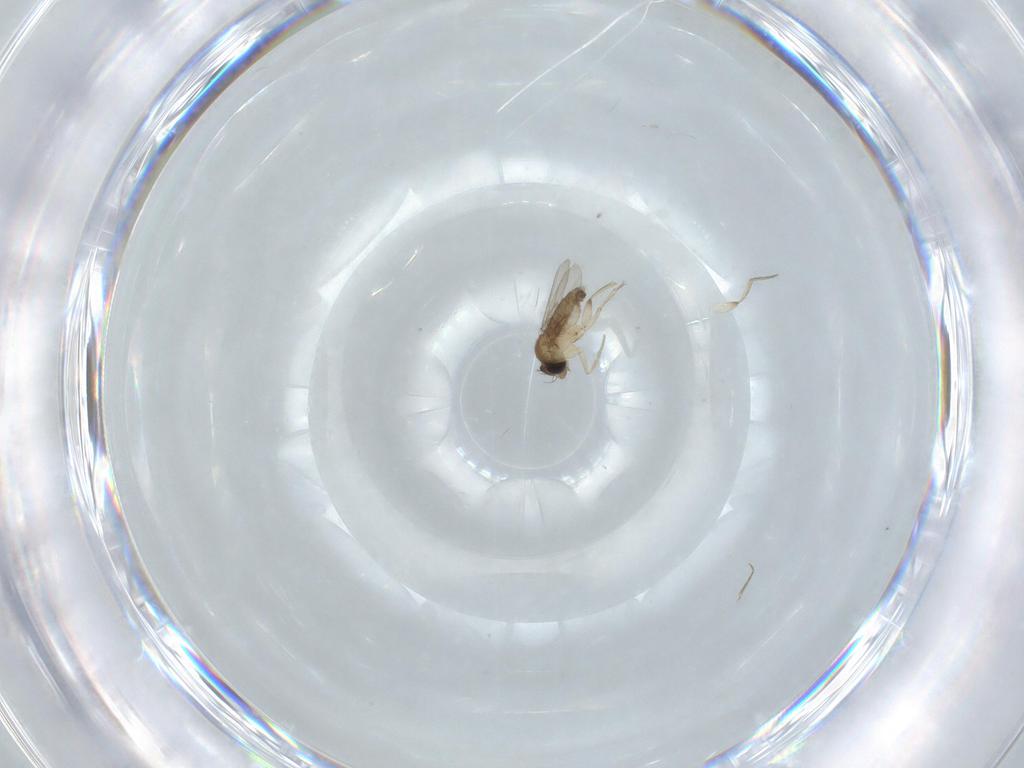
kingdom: Animalia
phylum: Arthropoda
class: Insecta
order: Diptera
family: Phoridae
